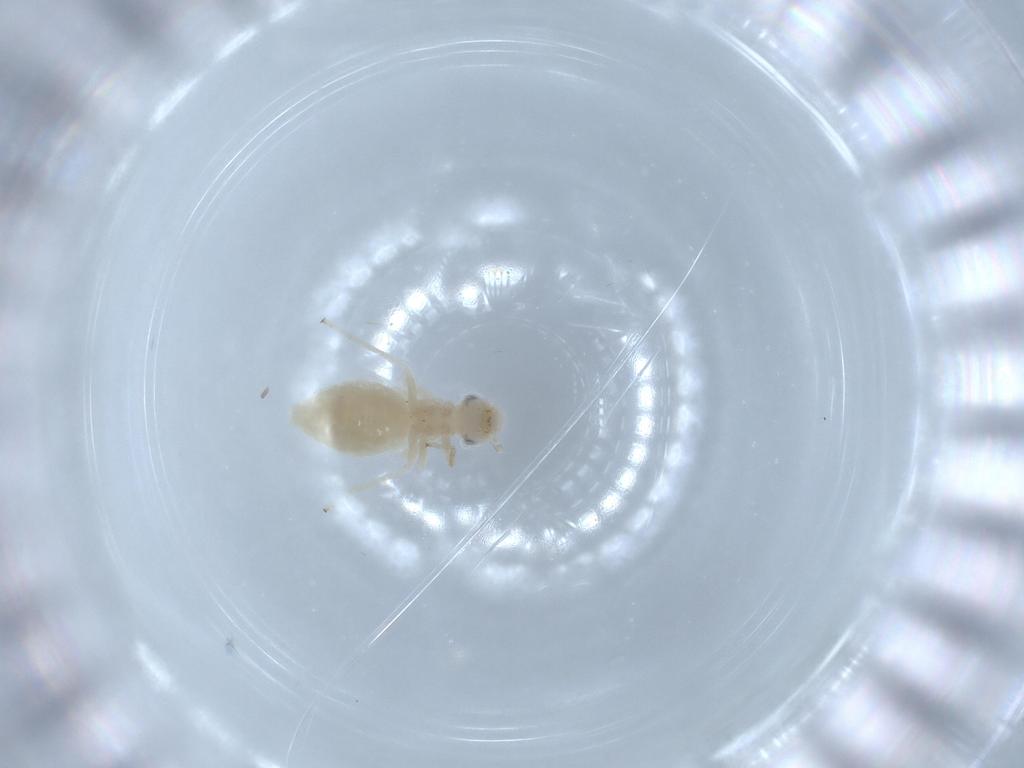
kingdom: Animalia
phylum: Arthropoda
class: Insecta
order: Psocodea
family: Caeciliusidae
